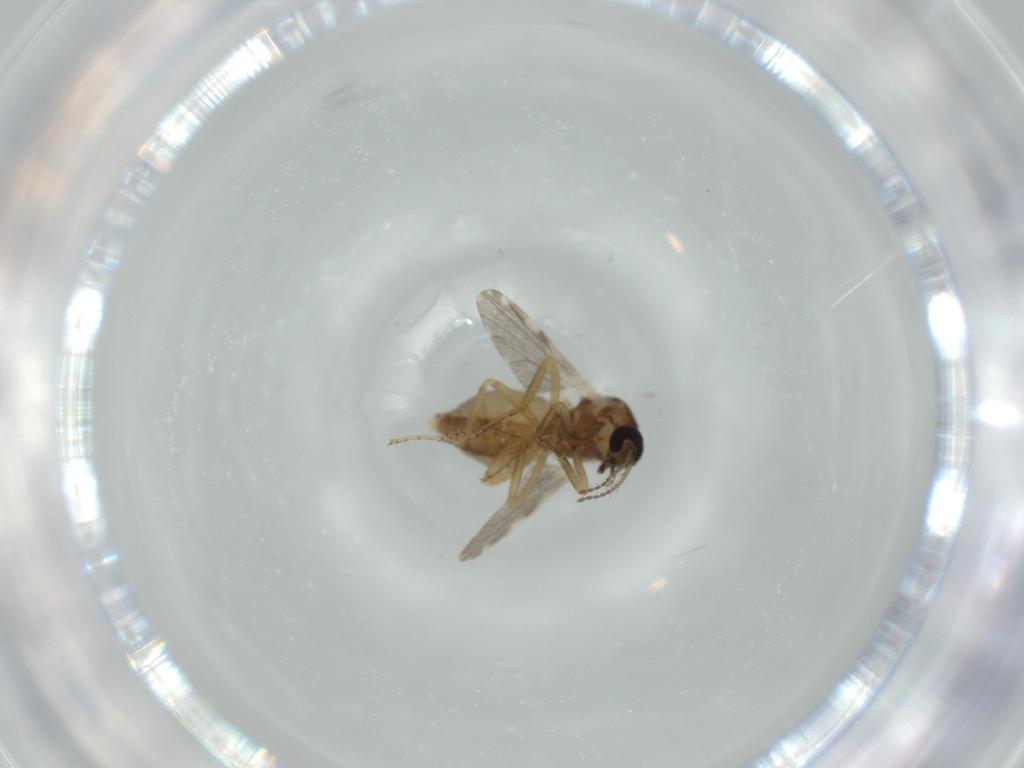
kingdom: Animalia
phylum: Arthropoda
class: Insecta
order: Diptera
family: Ceratopogonidae
